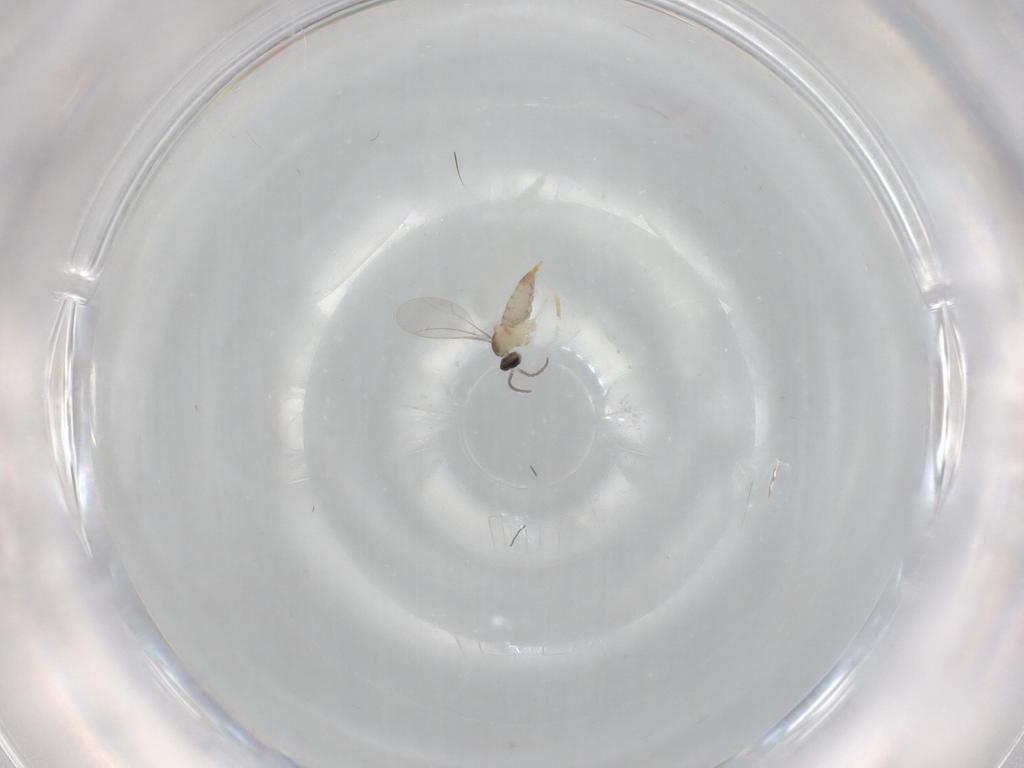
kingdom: Animalia
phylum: Arthropoda
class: Insecta
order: Diptera
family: Cecidomyiidae
